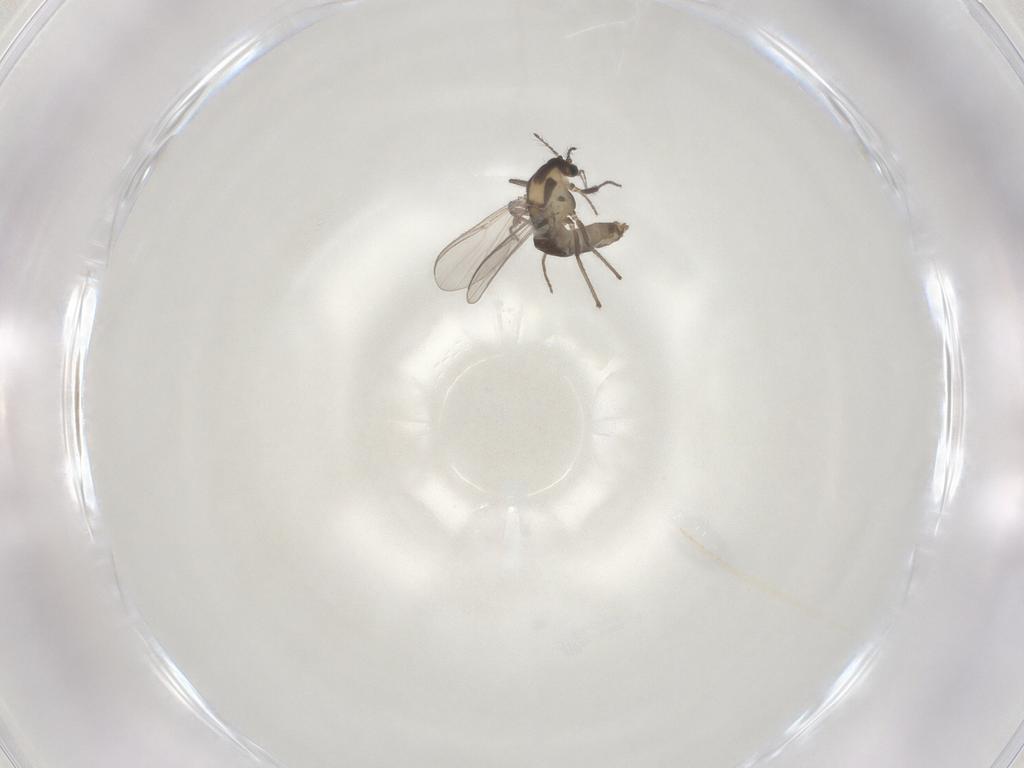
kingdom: Animalia
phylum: Arthropoda
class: Insecta
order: Diptera
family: Chironomidae
